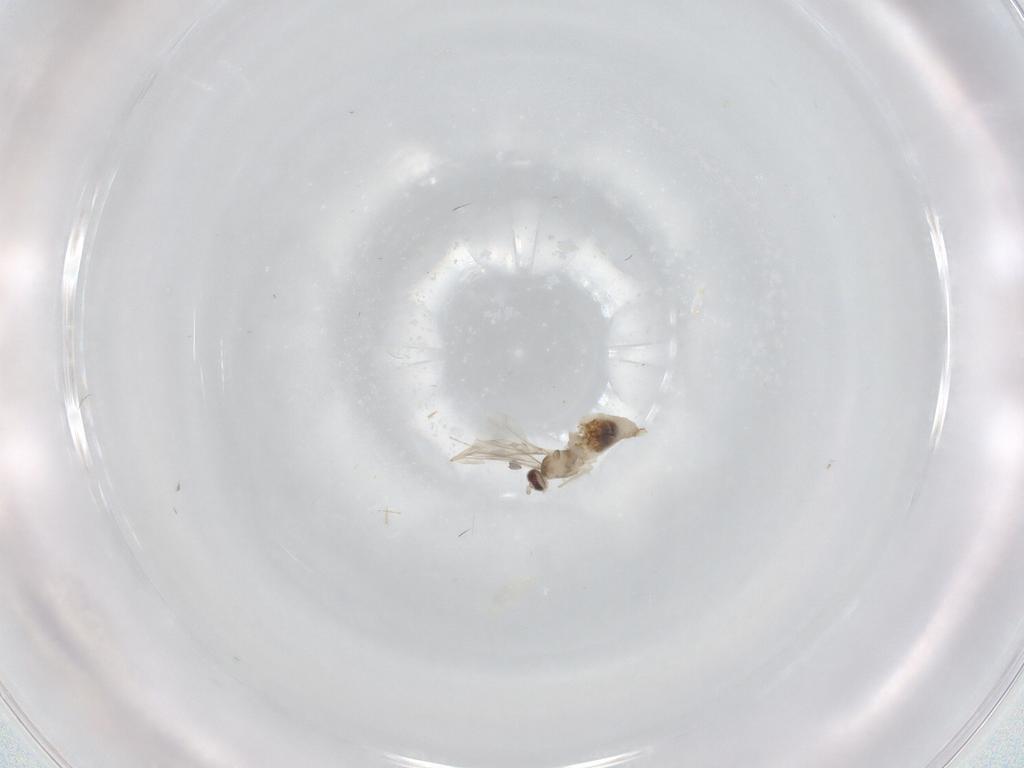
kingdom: Animalia
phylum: Arthropoda
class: Insecta
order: Diptera
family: Cecidomyiidae
